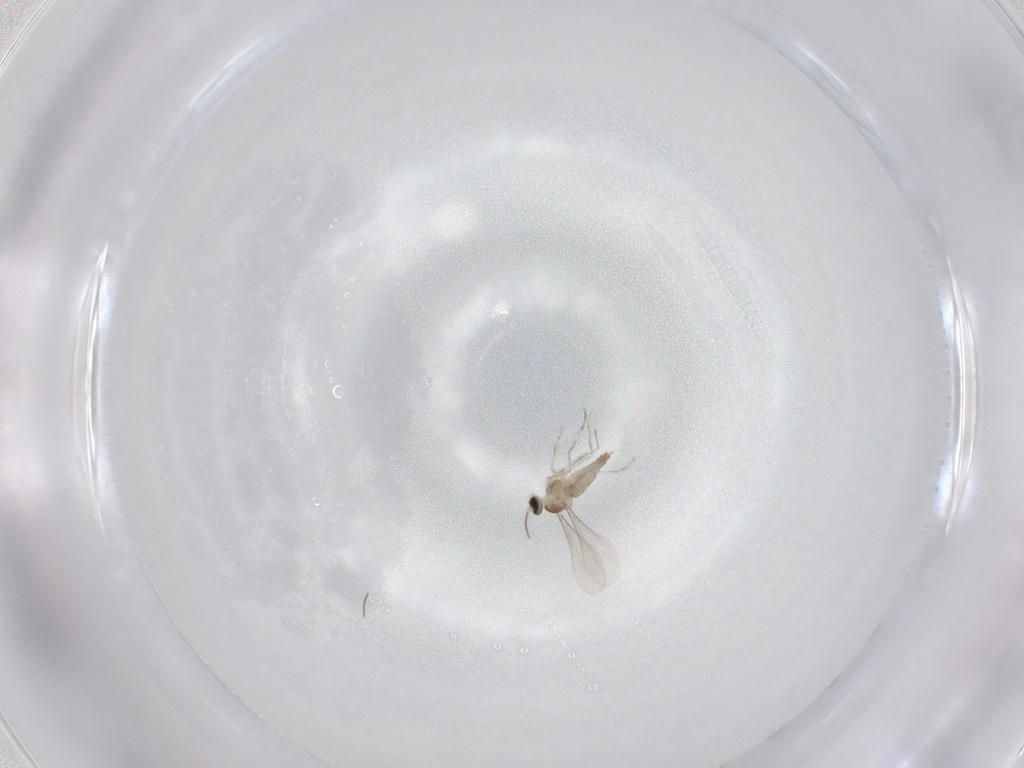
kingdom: Animalia
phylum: Arthropoda
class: Insecta
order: Diptera
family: Cecidomyiidae
